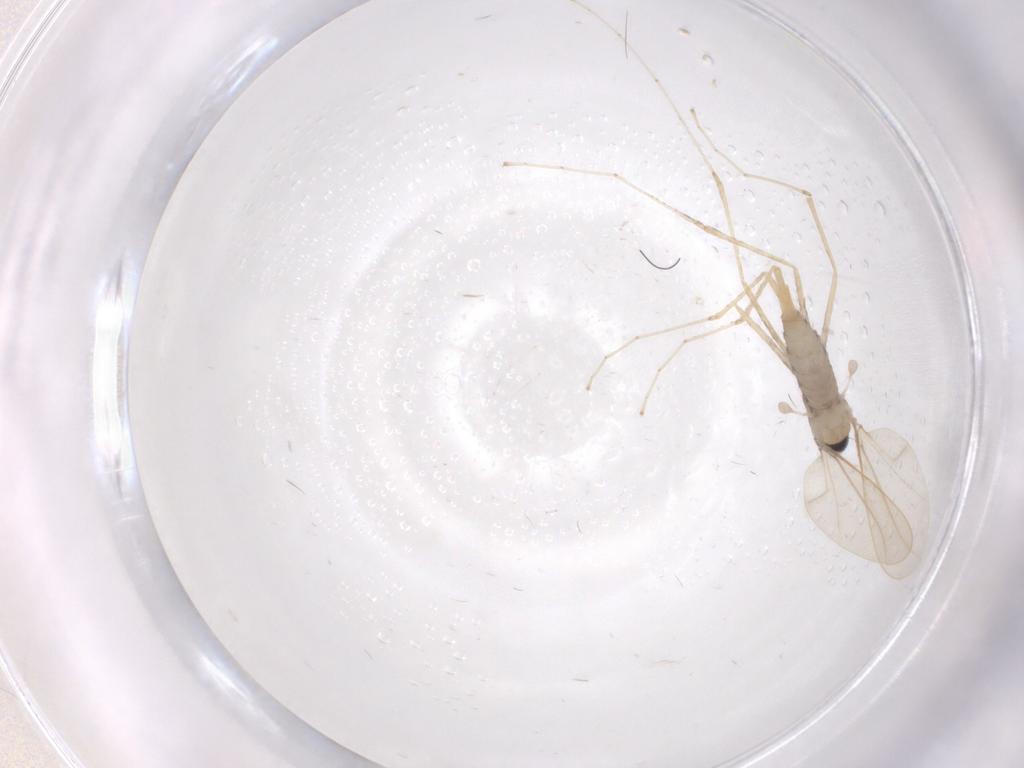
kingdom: Animalia
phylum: Arthropoda
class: Insecta
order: Diptera
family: Cecidomyiidae
